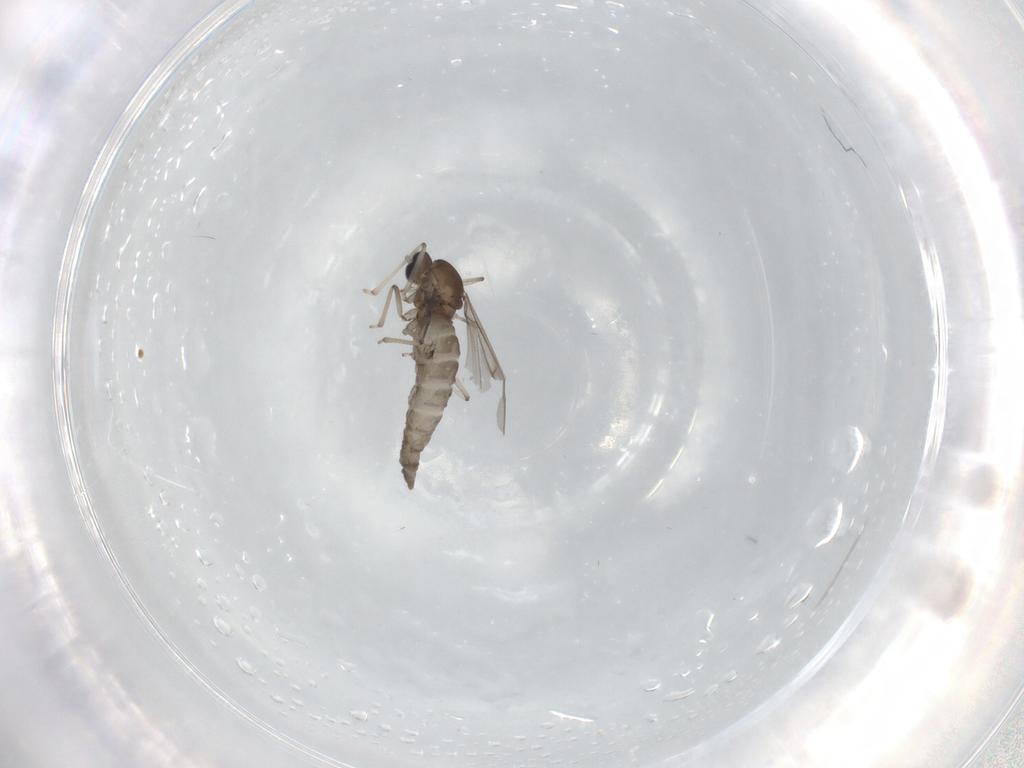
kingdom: Animalia
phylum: Arthropoda
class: Insecta
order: Diptera
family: Cecidomyiidae
